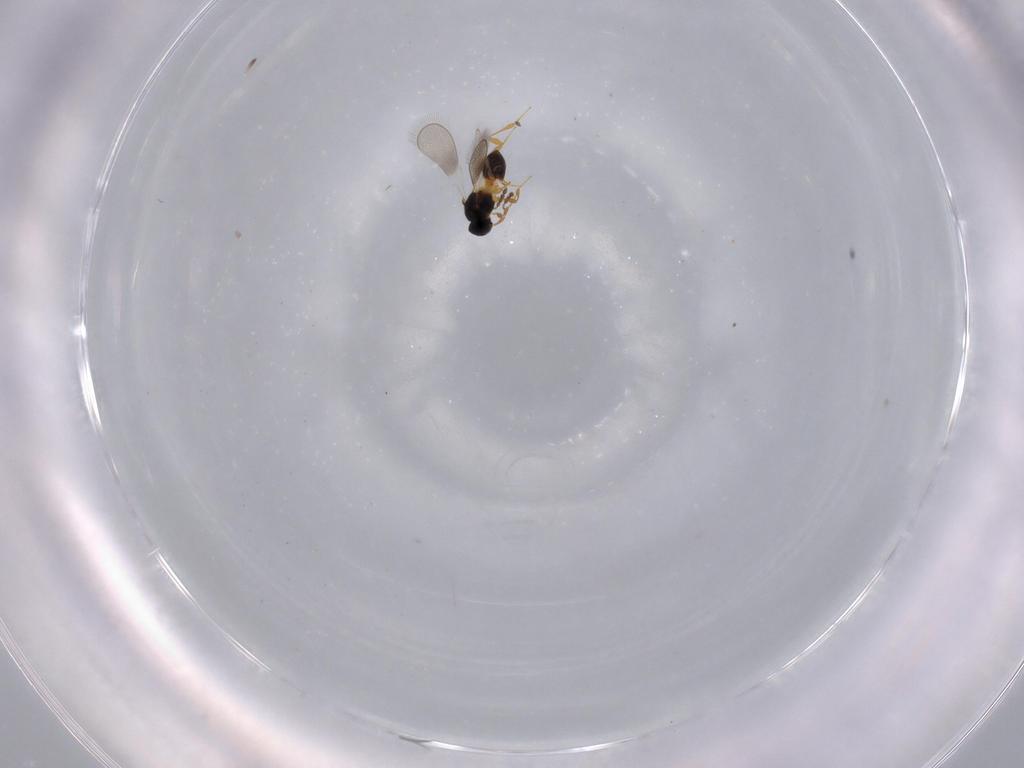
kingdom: Animalia
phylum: Arthropoda
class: Insecta
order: Hymenoptera
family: Platygastridae
